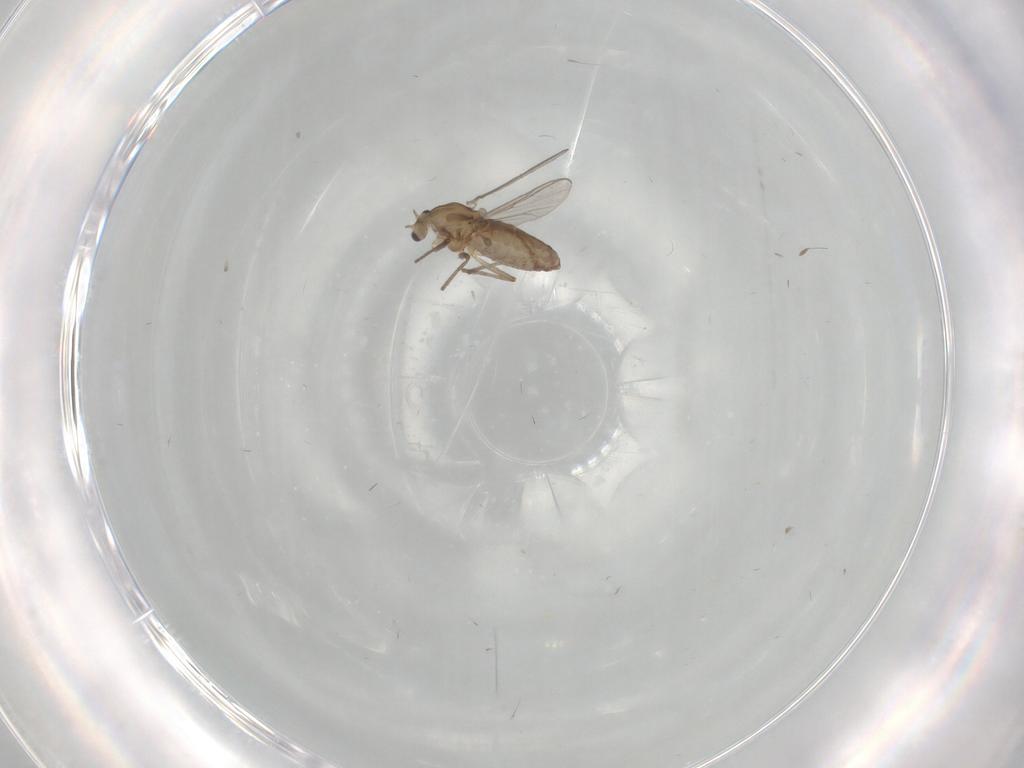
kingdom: Animalia
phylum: Arthropoda
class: Insecta
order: Diptera
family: Chironomidae
